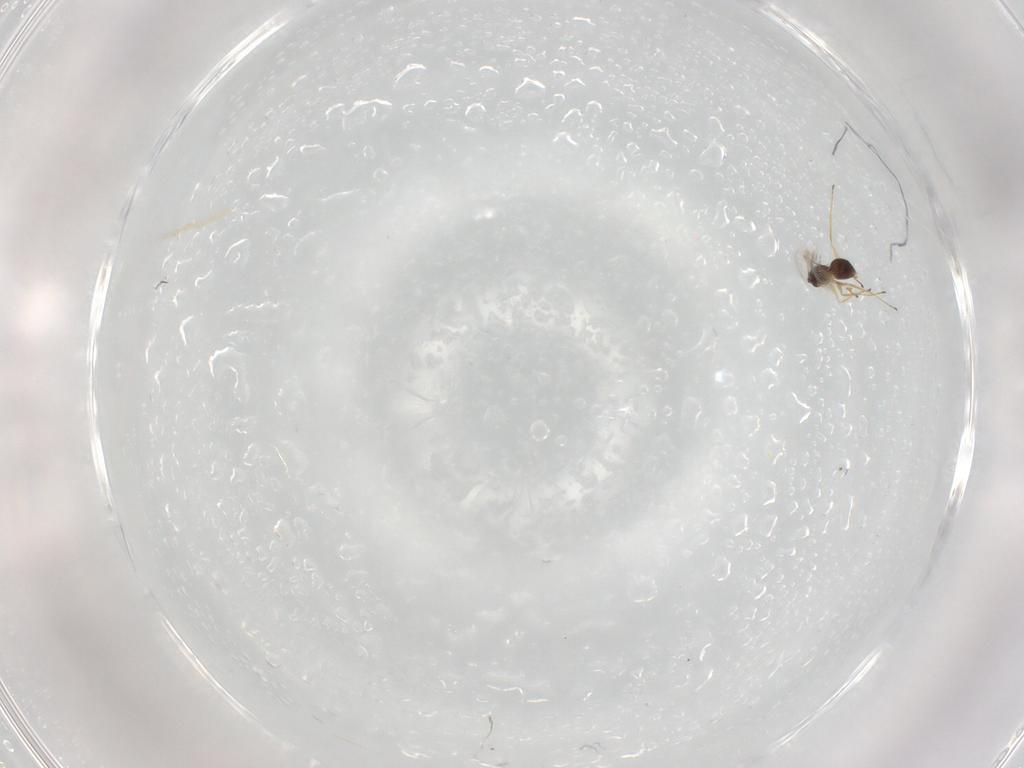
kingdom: Animalia
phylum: Arthropoda
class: Insecta
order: Hymenoptera
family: Mymaridae
